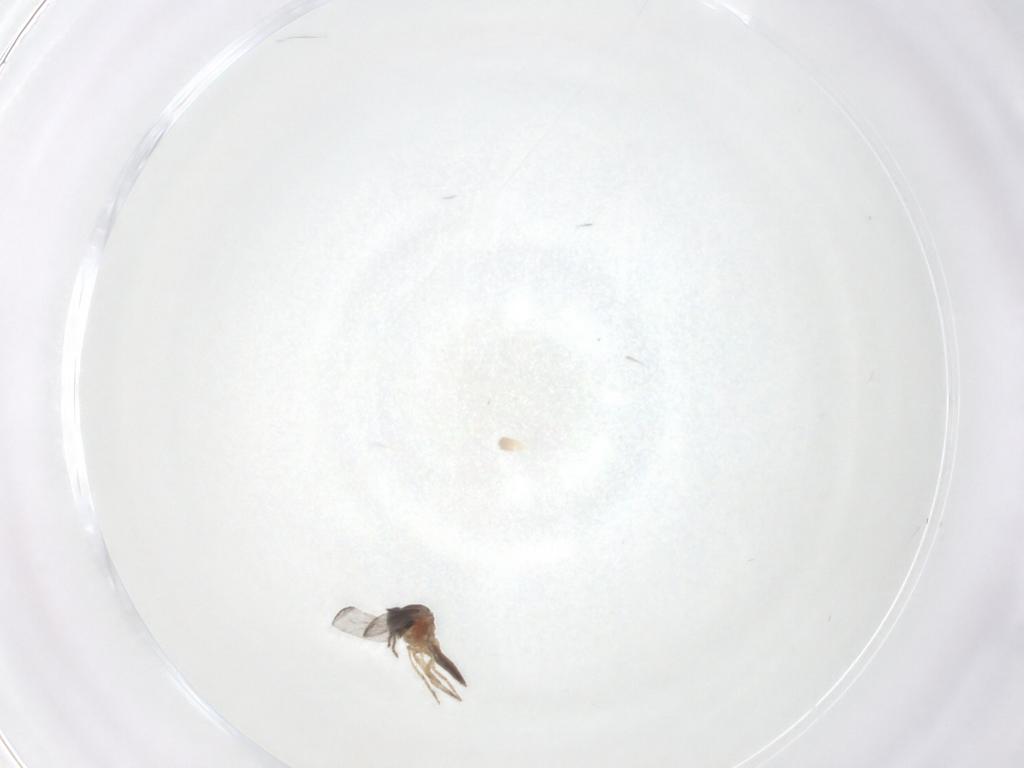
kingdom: Animalia
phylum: Arthropoda
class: Insecta
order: Diptera
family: Ceratopogonidae
